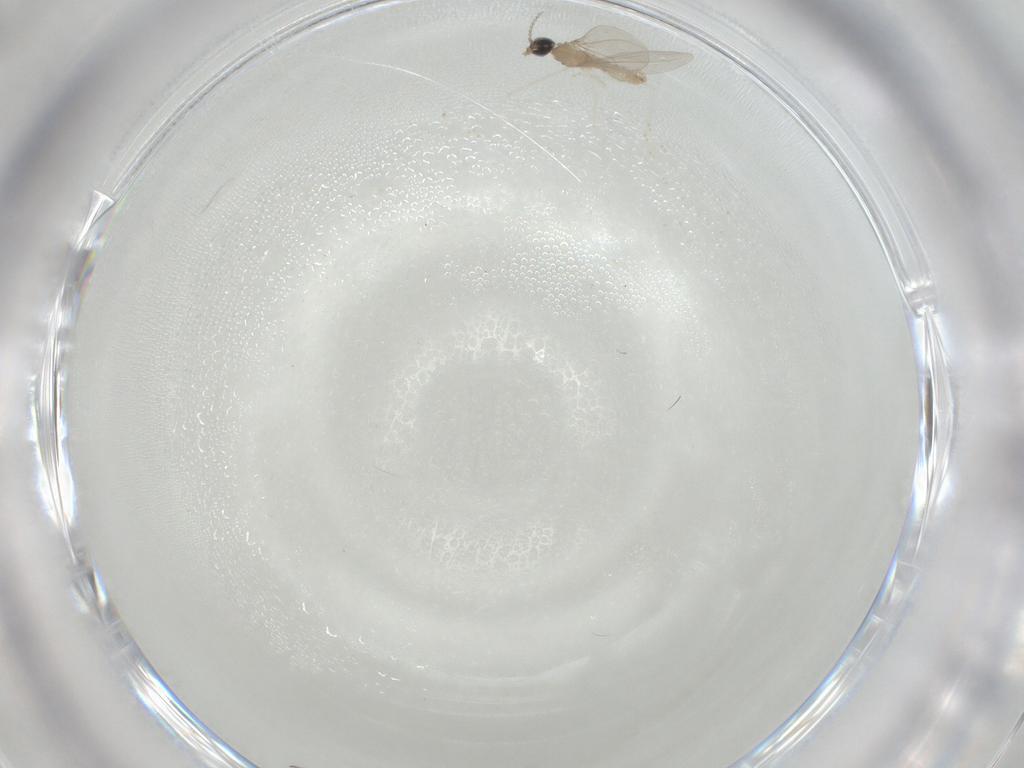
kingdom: Animalia
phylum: Arthropoda
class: Insecta
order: Diptera
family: Cecidomyiidae
